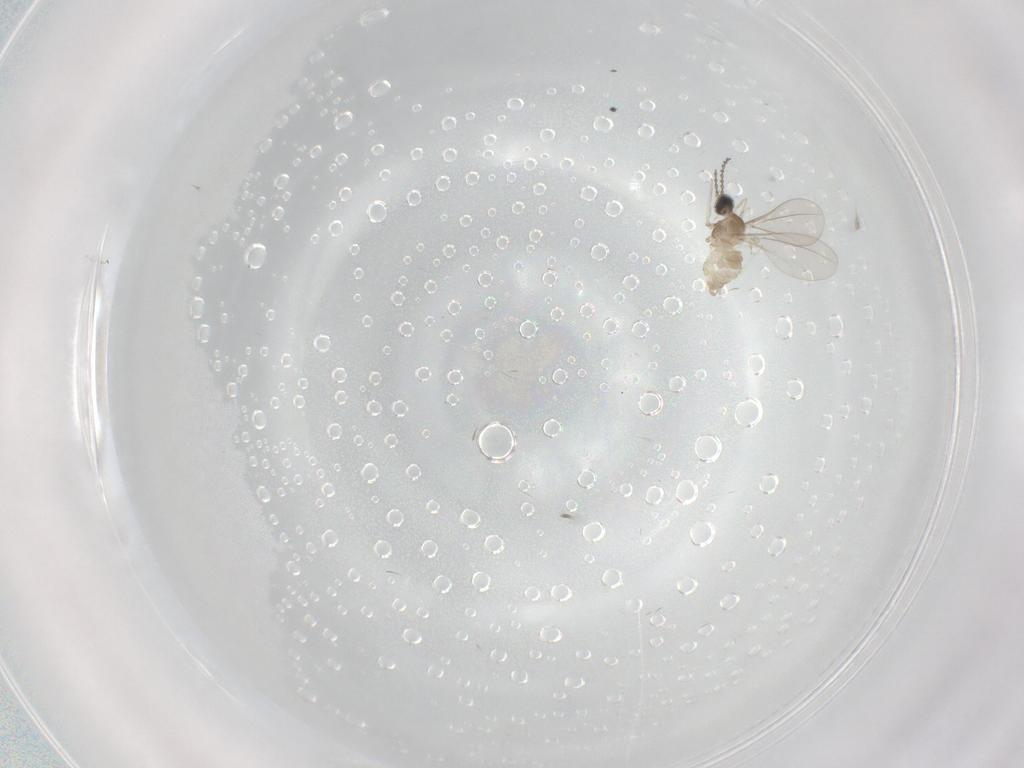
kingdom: Animalia
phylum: Arthropoda
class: Insecta
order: Diptera
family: Cecidomyiidae
